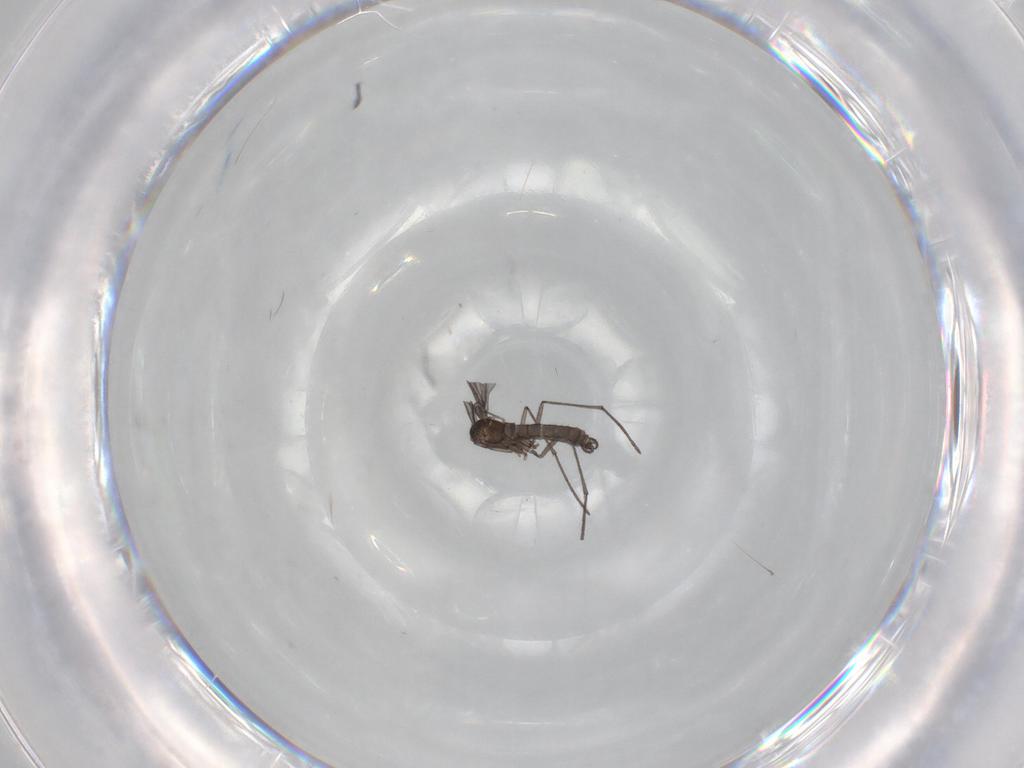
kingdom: Animalia
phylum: Arthropoda
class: Insecta
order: Diptera
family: Sciaridae
